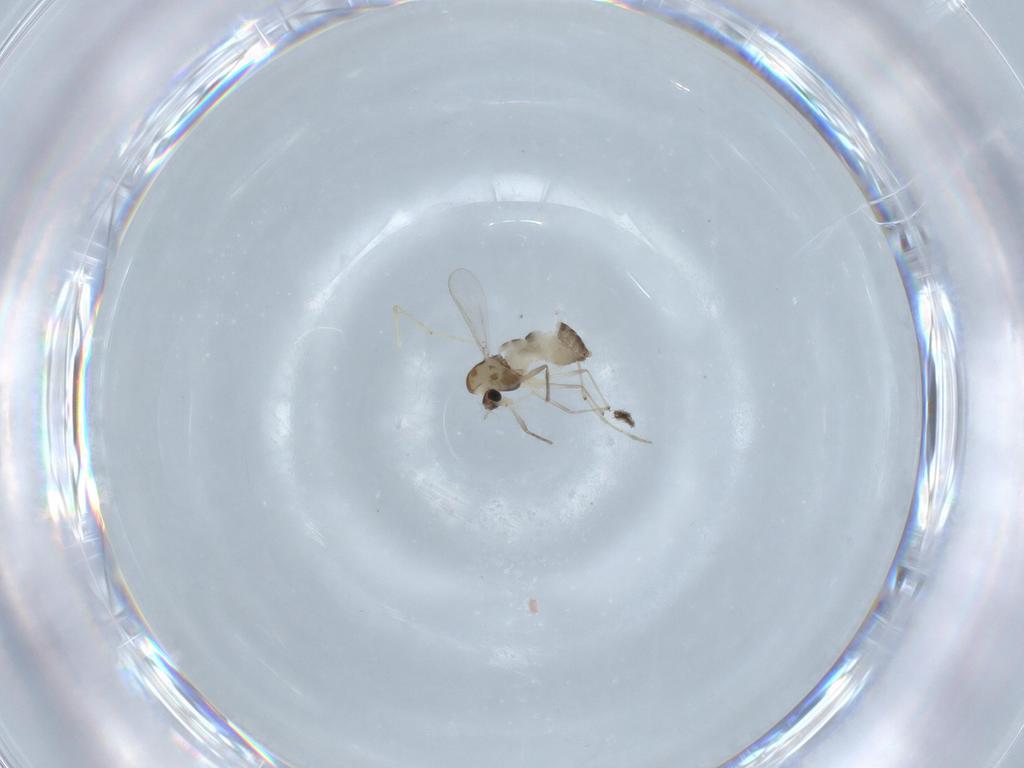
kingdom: Animalia
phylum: Arthropoda
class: Insecta
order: Diptera
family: Chironomidae
